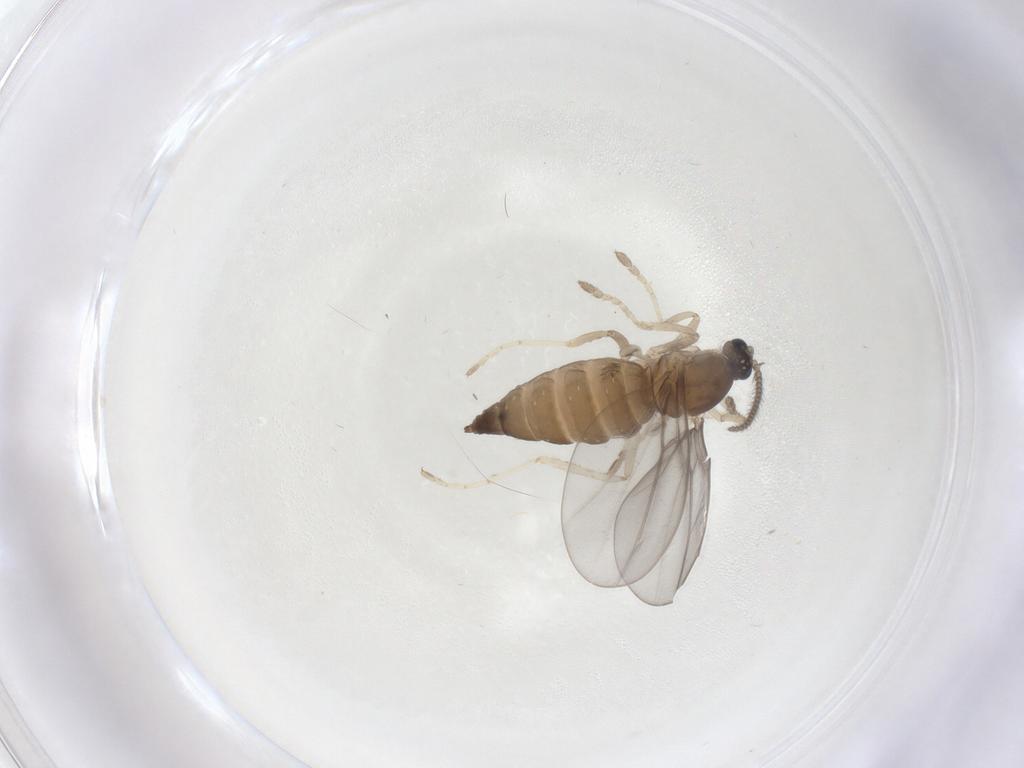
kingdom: Animalia
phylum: Arthropoda
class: Insecta
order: Diptera
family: Cecidomyiidae
